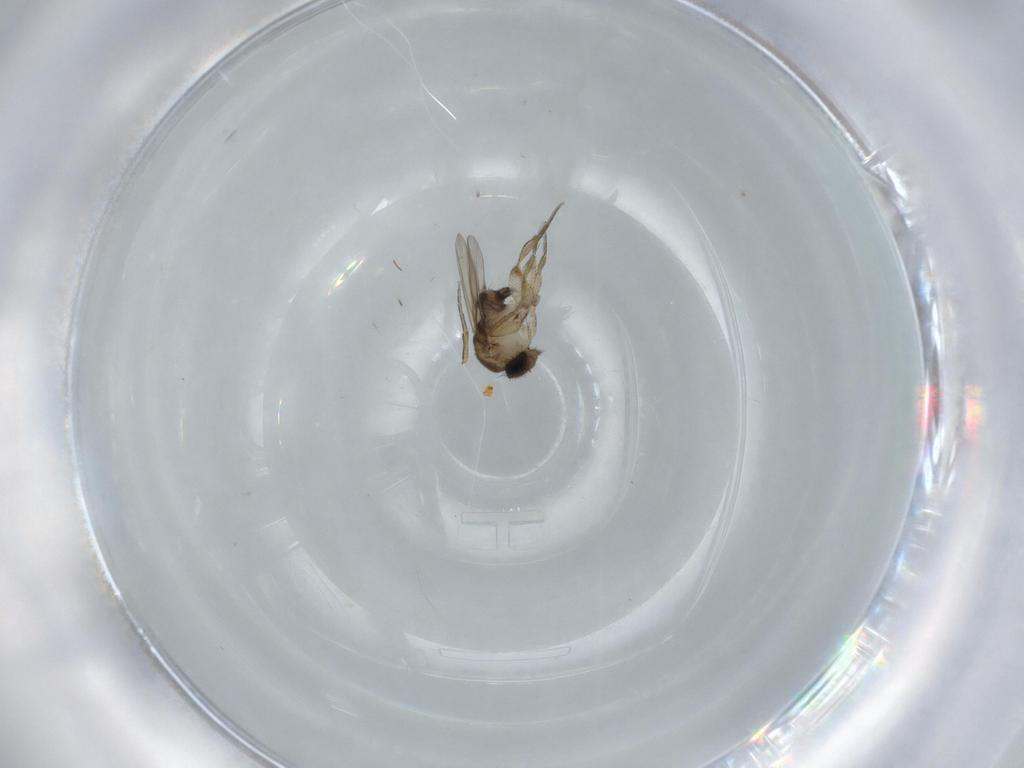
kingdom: Animalia
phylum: Arthropoda
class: Insecta
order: Diptera
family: Phoridae
